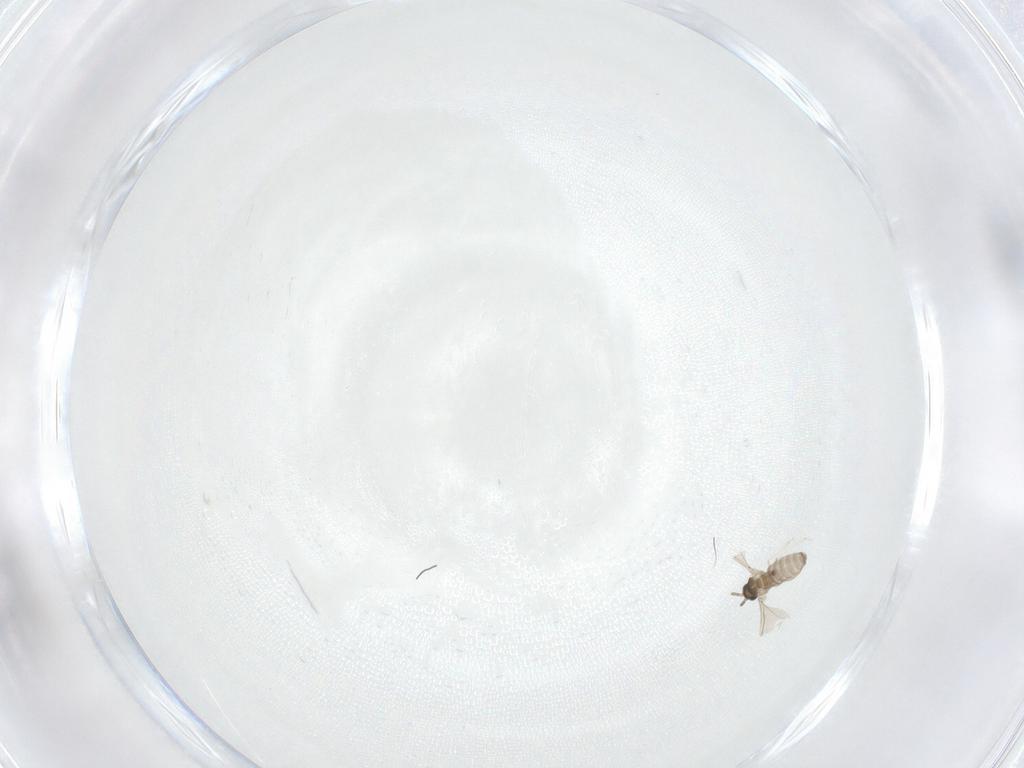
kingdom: Animalia
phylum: Arthropoda
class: Insecta
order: Diptera
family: Cecidomyiidae
